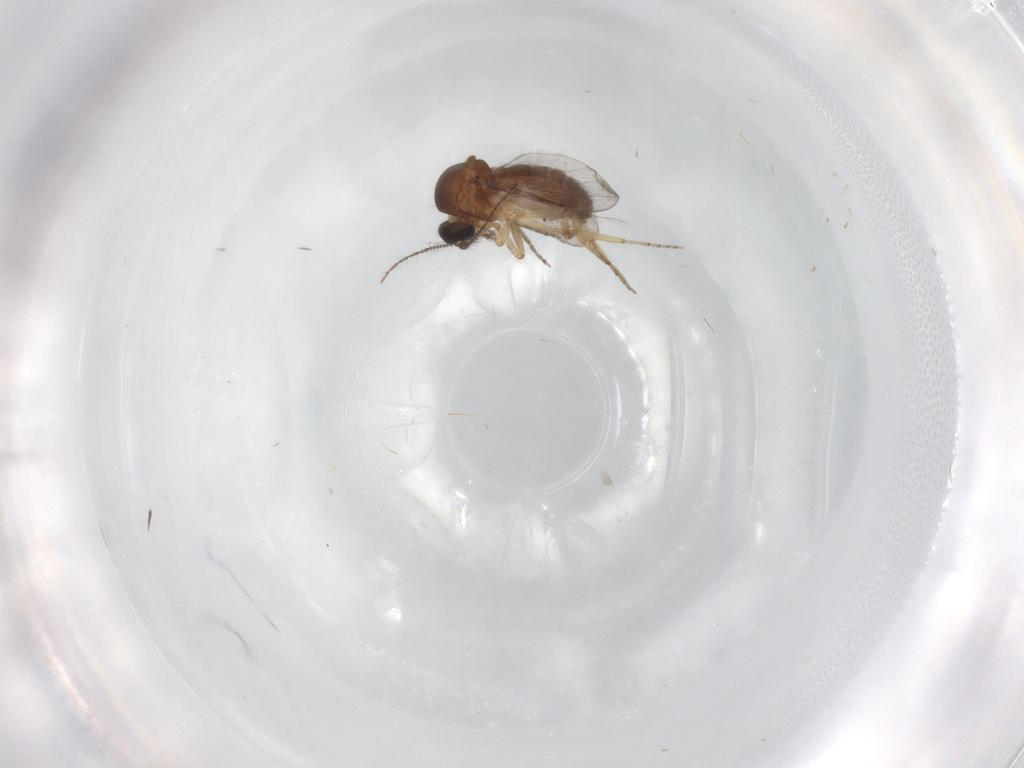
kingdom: Animalia
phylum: Arthropoda
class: Insecta
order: Diptera
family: Ceratopogonidae
